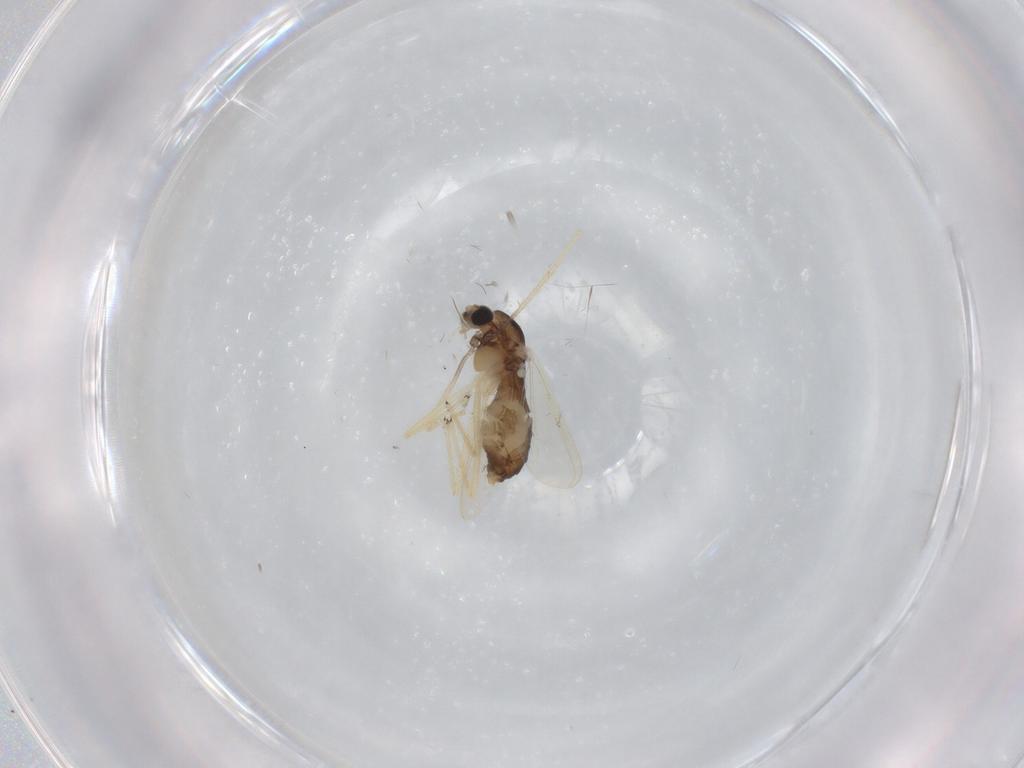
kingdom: Animalia
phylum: Arthropoda
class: Insecta
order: Diptera
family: Chironomidae
